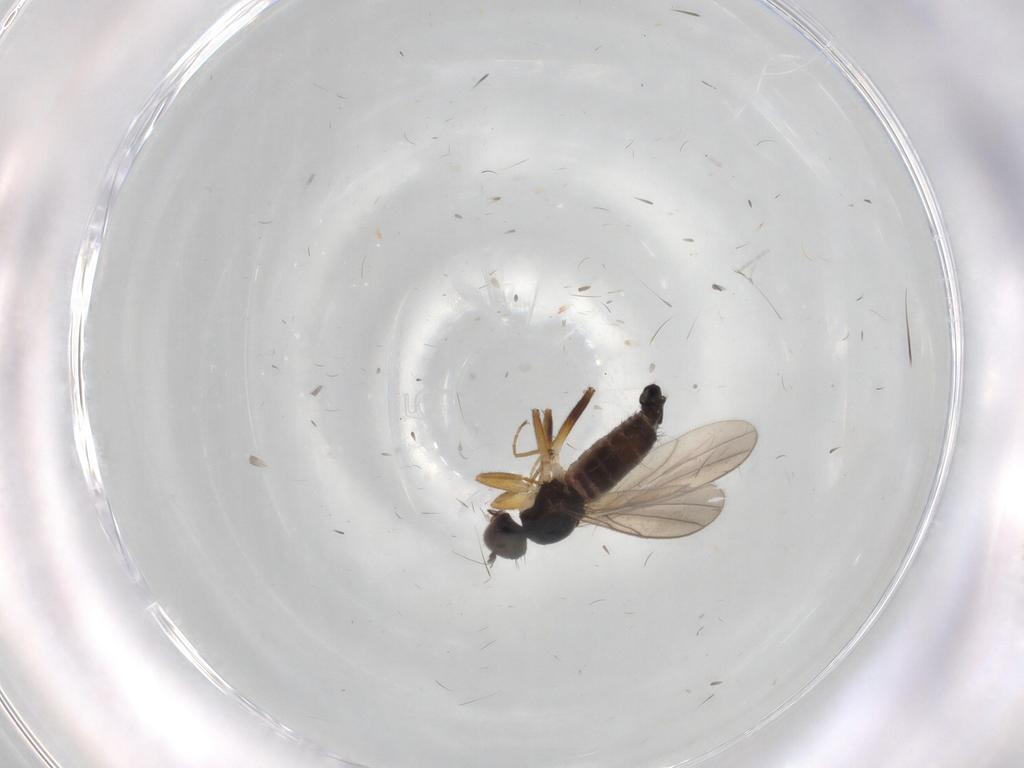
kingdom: Animalia
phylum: Arthropoda
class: Insecta
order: Diptera
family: Hybotidae
